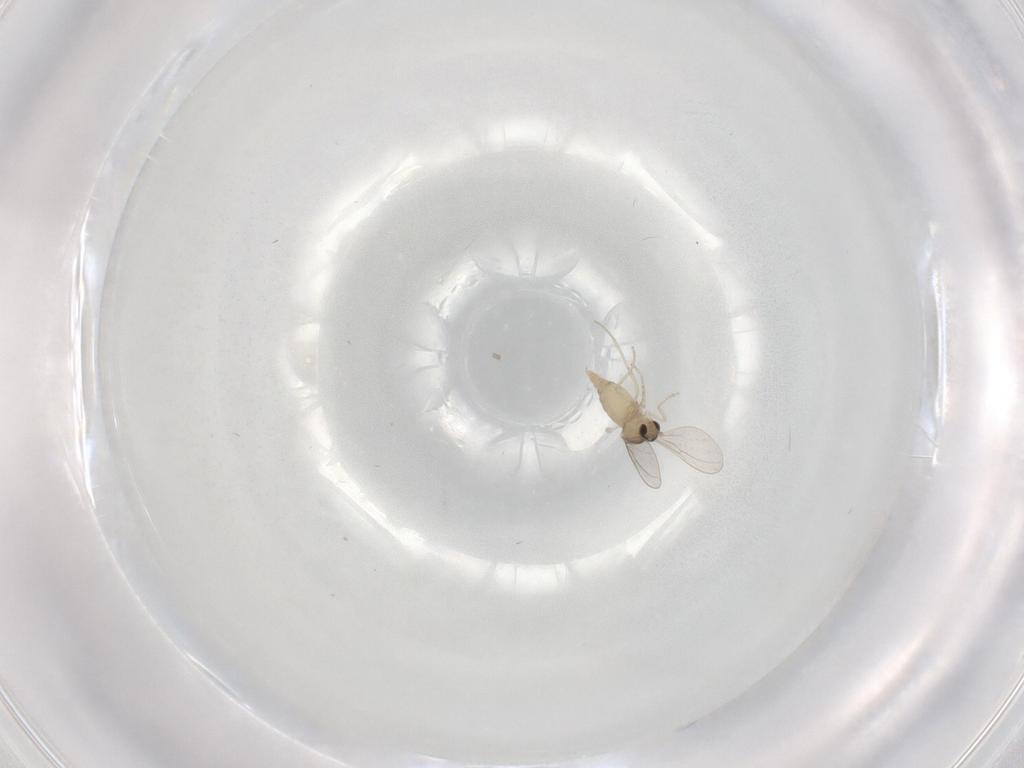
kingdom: Animalia
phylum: Arthropoda
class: Insecta
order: Diptera
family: Cecidomyiidae
